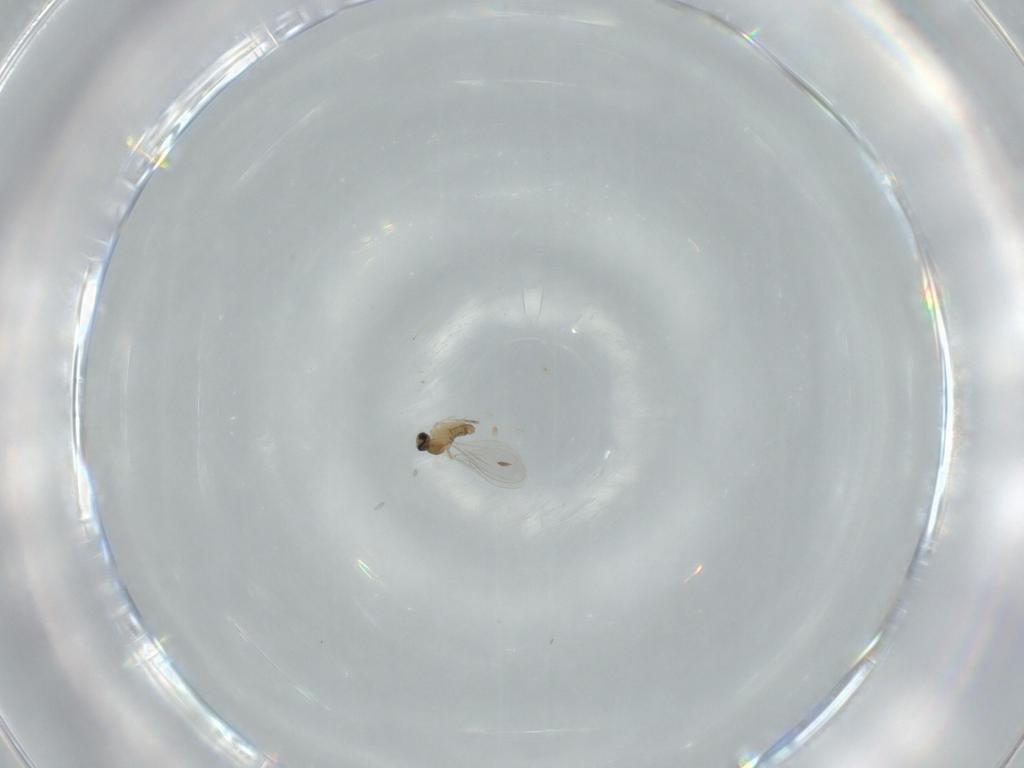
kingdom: Animalia
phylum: Arthropoda
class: Insecta
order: Diptera
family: Cecidomyiidae
